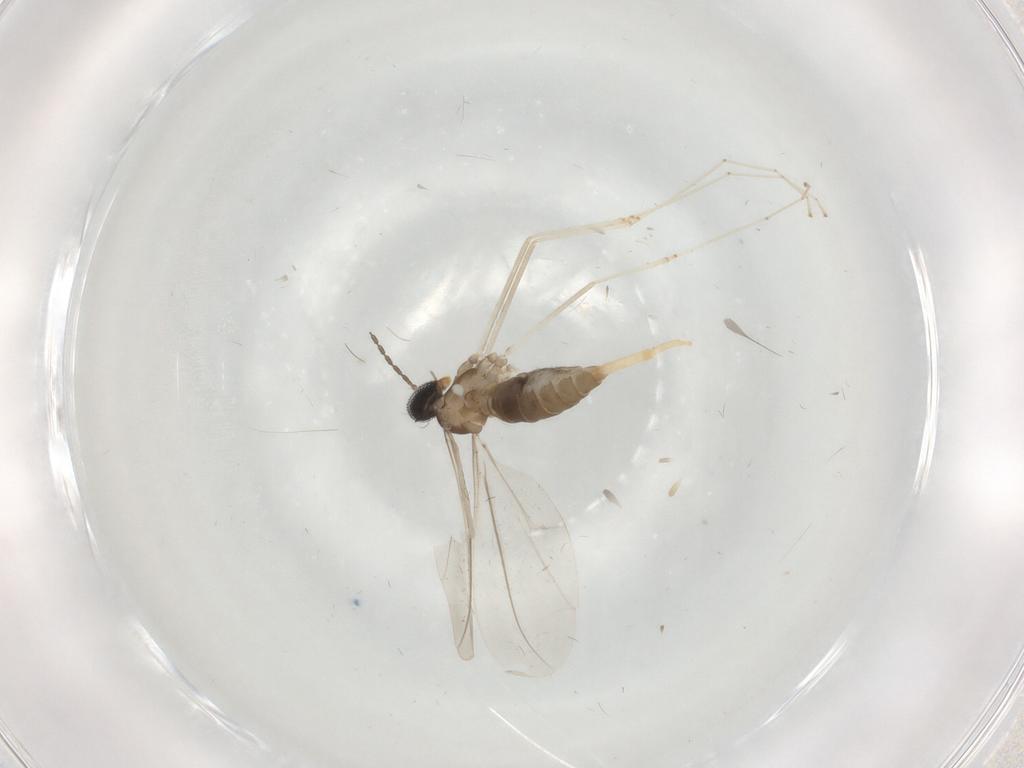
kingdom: Animalia
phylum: Arthropoda
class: Insecta
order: Diptera
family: Cecidomyiidae
